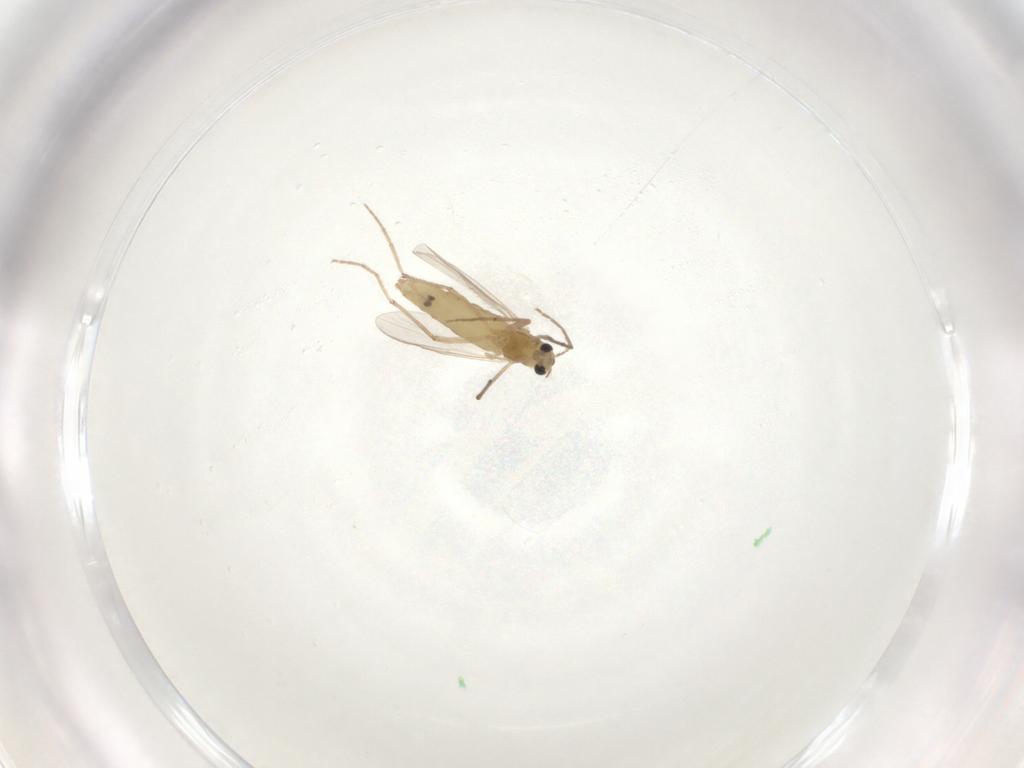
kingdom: Animalia
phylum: Arthropoda
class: Insecta
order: Diptera
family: Chironomidae
